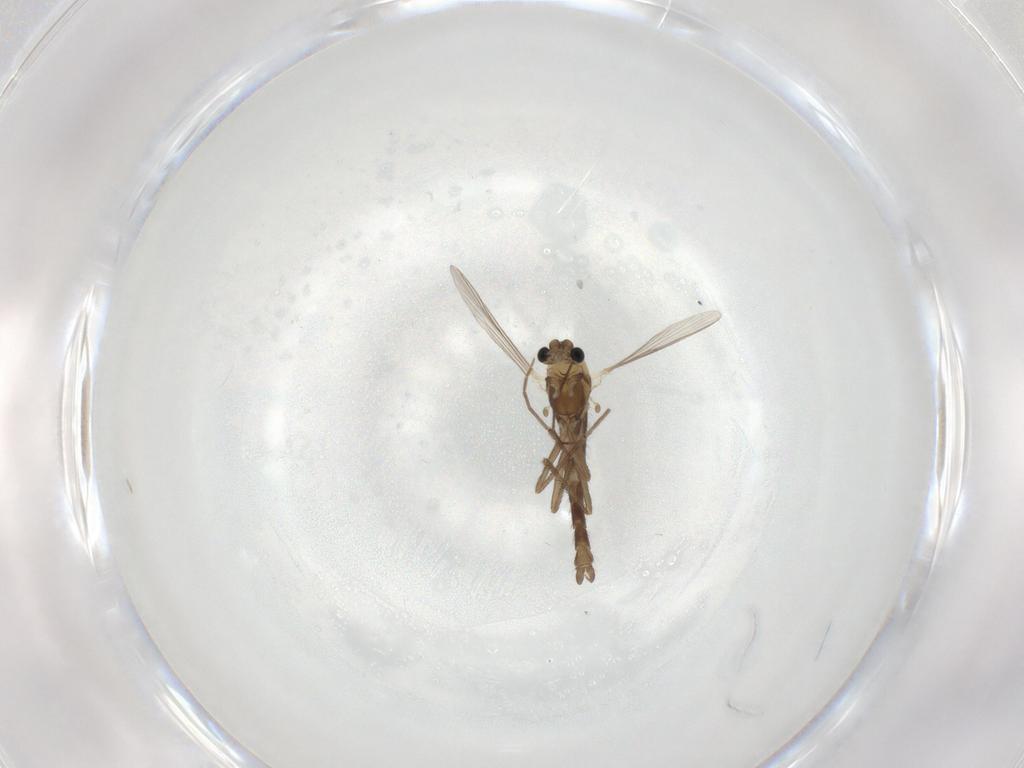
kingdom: Animalia
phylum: Arthropoda
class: Insecta
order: Diptera
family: Chironomidae
